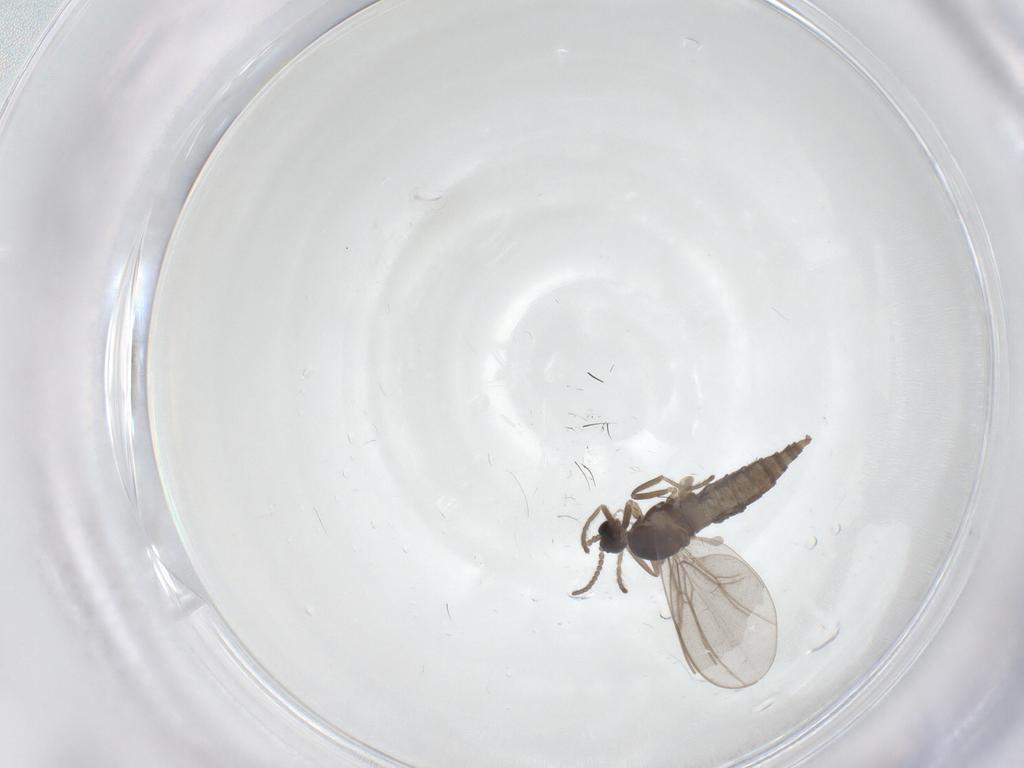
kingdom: Animalia
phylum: Arthropoda
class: Insecta
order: Diptera
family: Cecidomyiidae
